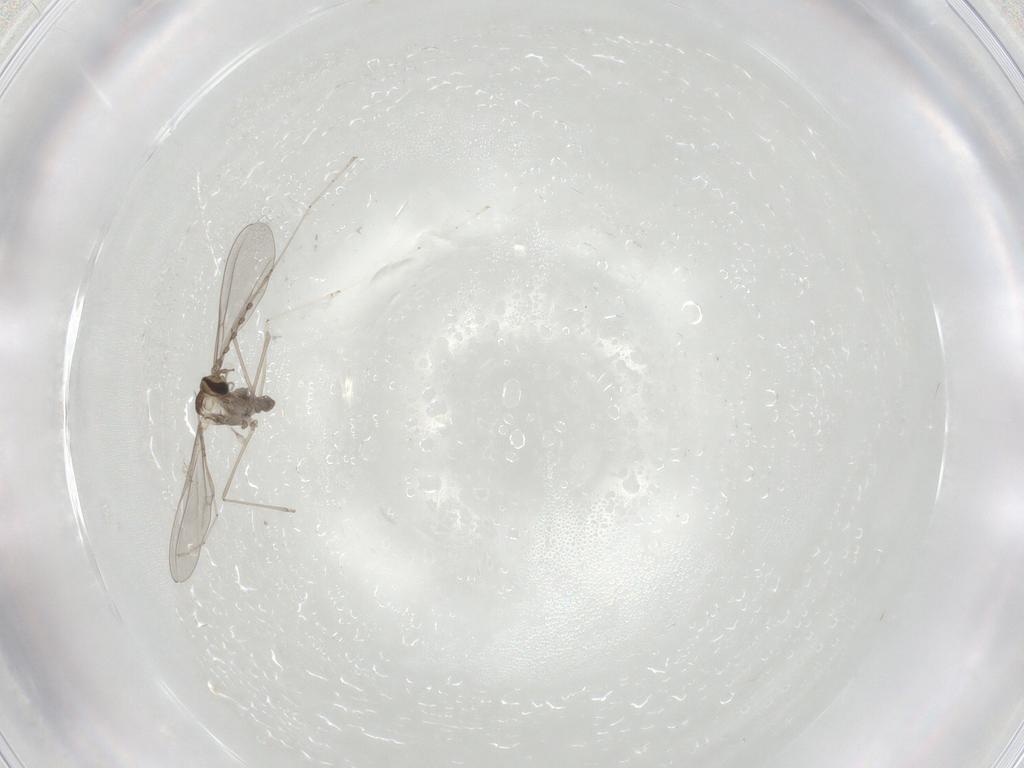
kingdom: Animalia
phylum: Arthropoda
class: Insecta
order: Diptera
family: Cecidomyiidae
